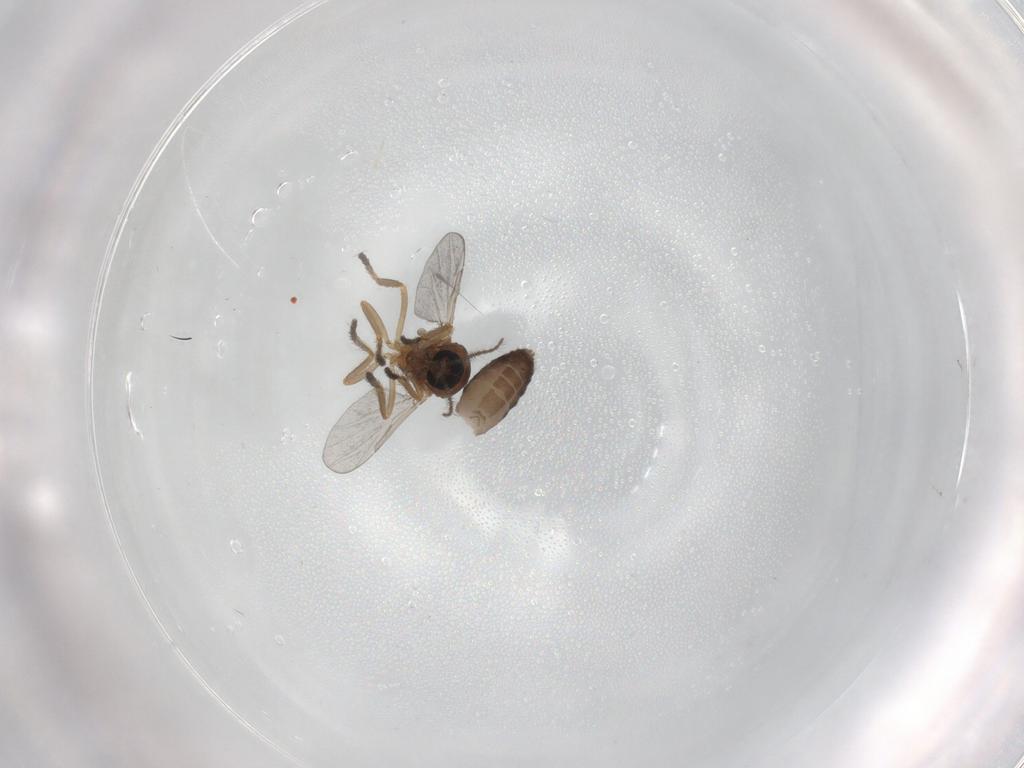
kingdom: Animalia
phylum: Arthropoda
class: Insecta
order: Diptera
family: Ceratopogonidae
